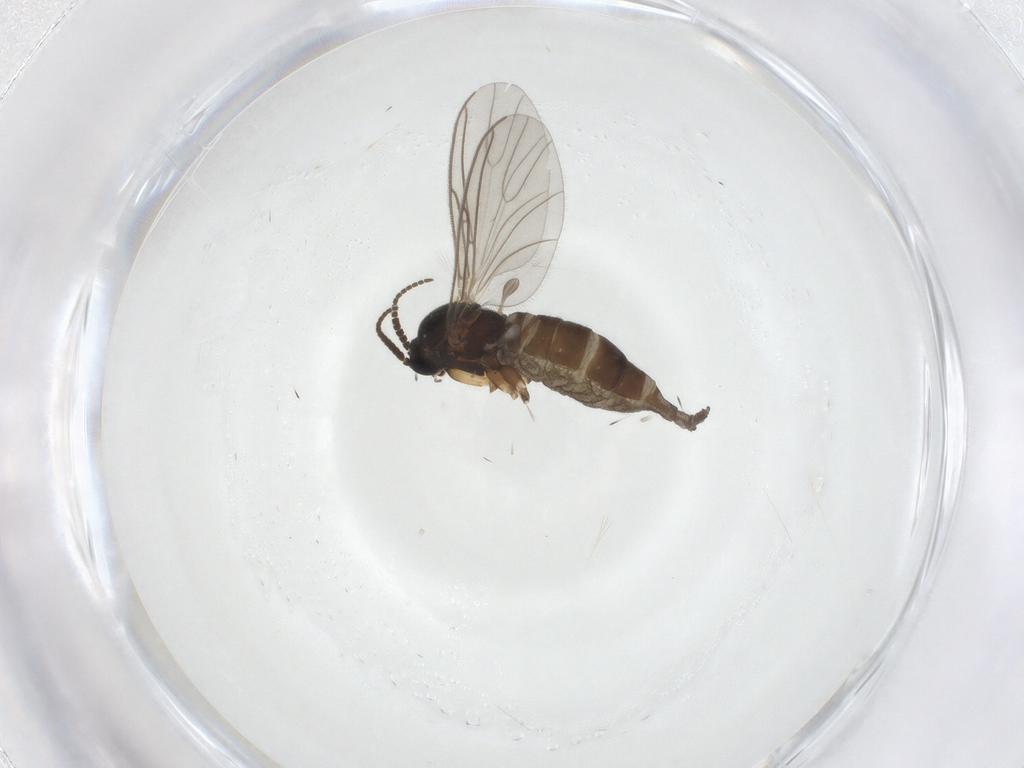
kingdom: Animalia
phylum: Arthropoda
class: Insecta
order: Diptera
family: Sciaridae
